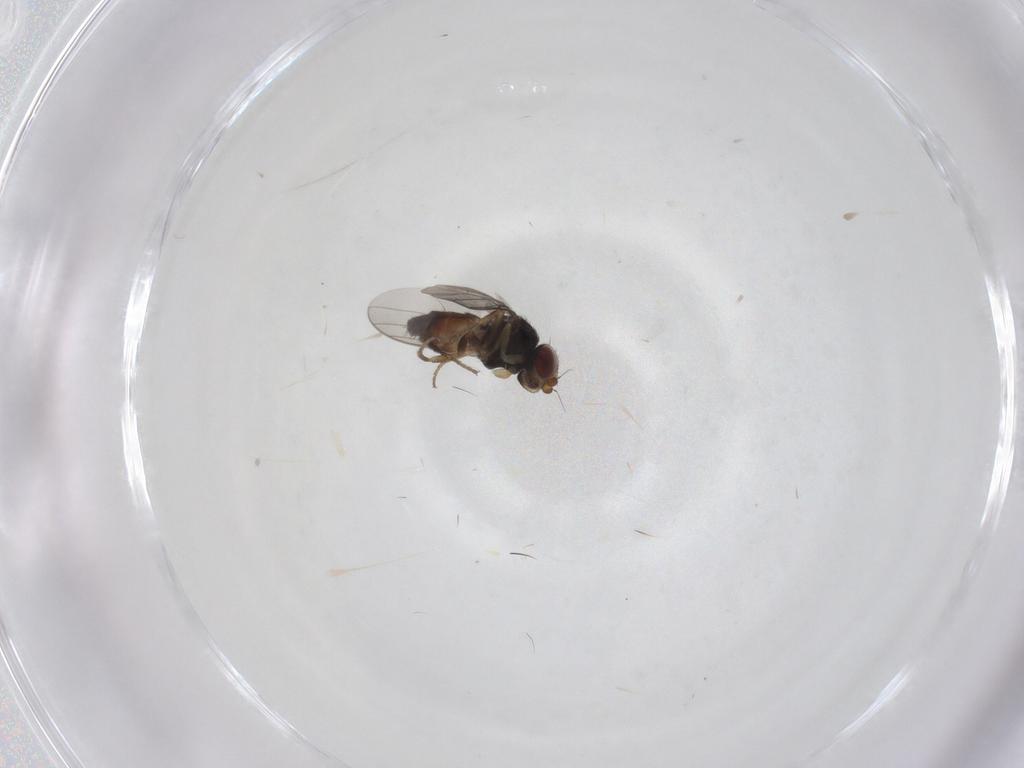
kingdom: Animalia
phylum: Arthropoda
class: Insecta
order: Diptera
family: Chloropidae
